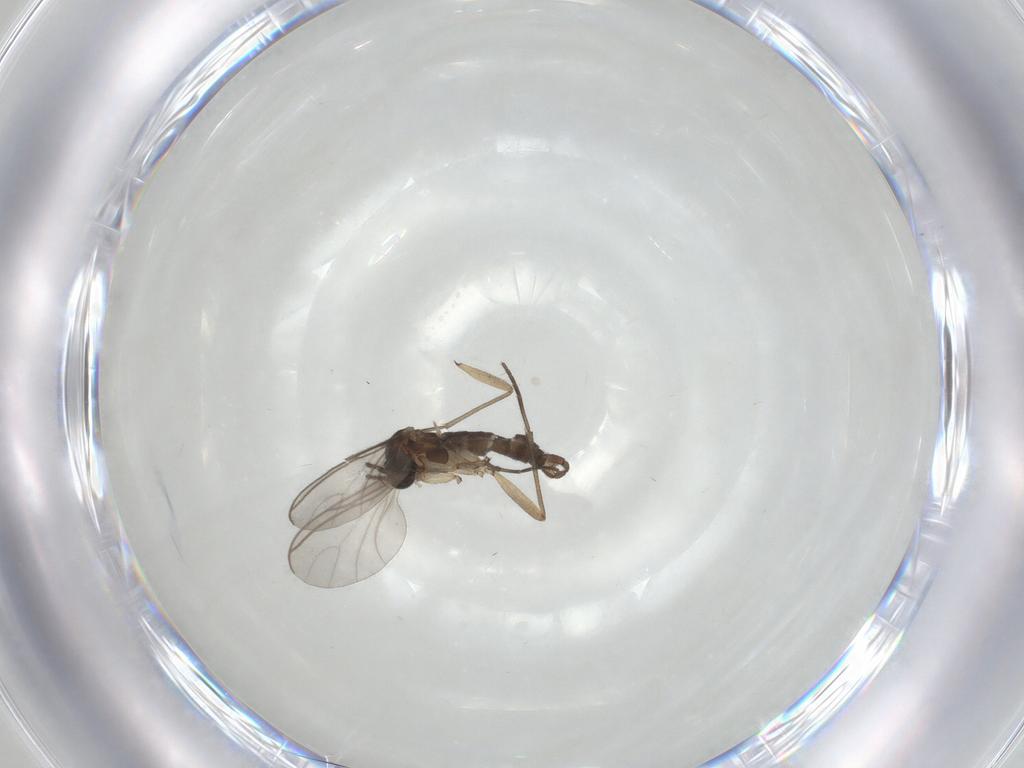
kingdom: Animalia
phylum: Arthropoda
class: Insecta
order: Diptera
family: Sciaridae
